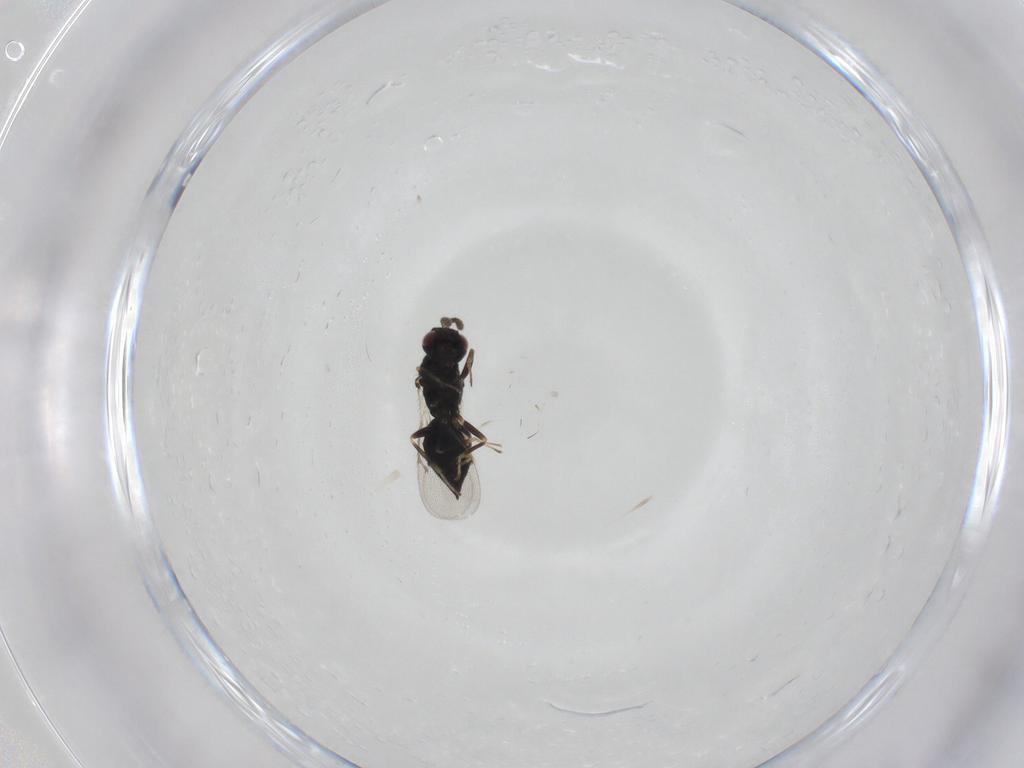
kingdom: Animalia
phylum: Arthropoda
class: Insecta
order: Hymenoptera
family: Eulophidae
